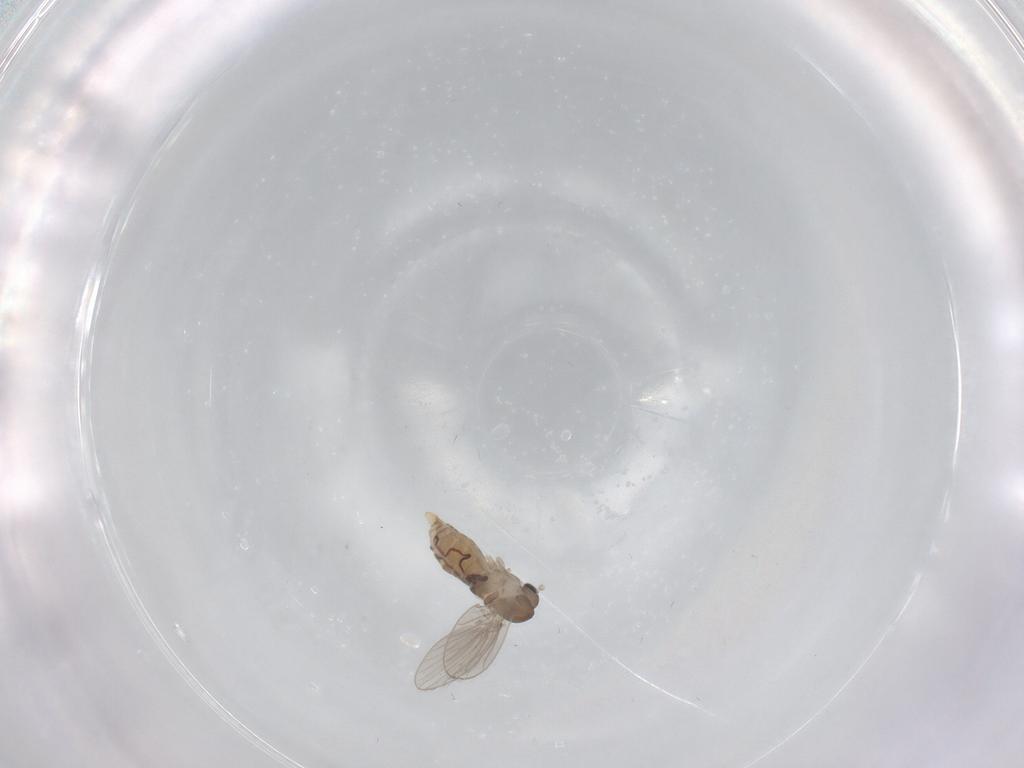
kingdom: Animalia
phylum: Arthropoda
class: Insecta
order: Diptera
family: Psychodidae
